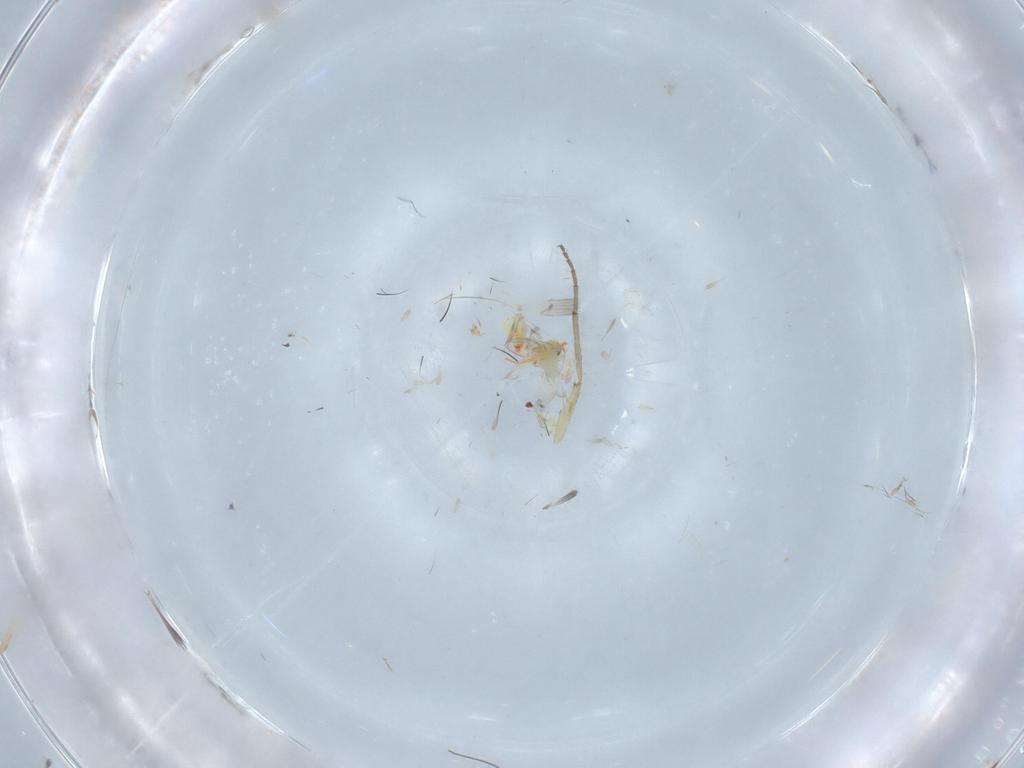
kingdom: Animalia
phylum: Arthropoda
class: Insecta
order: Diptera
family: Chironomidae
